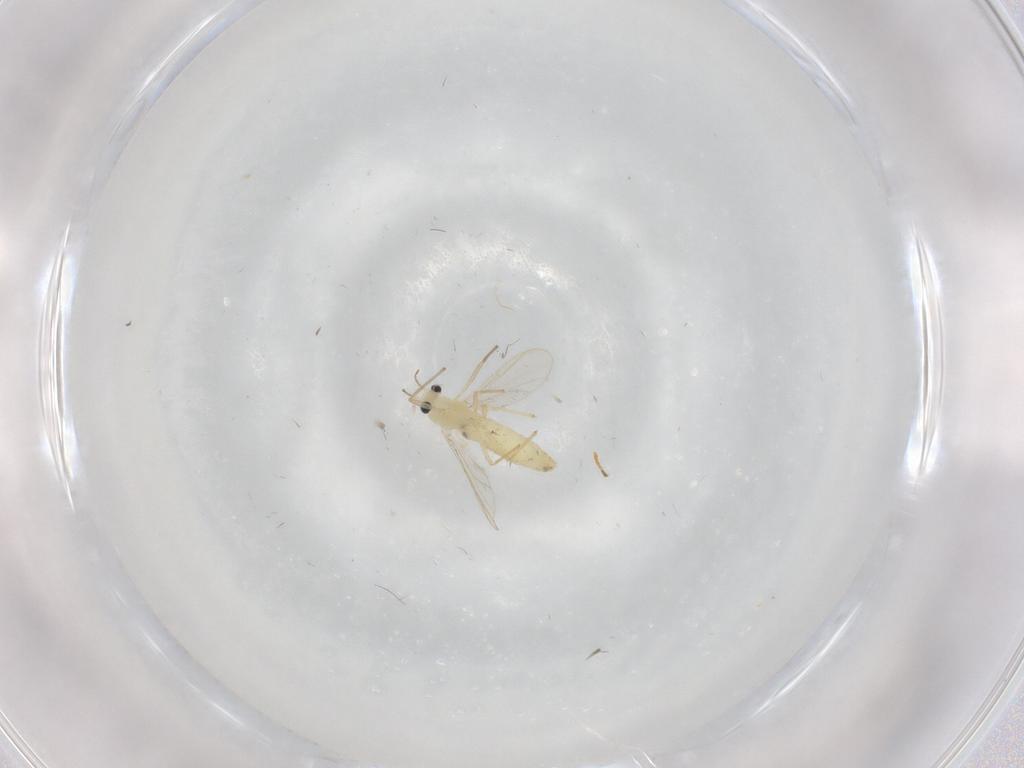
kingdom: Animalia
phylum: Arthropoda
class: Insecta
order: Diptera
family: Chironomidae
